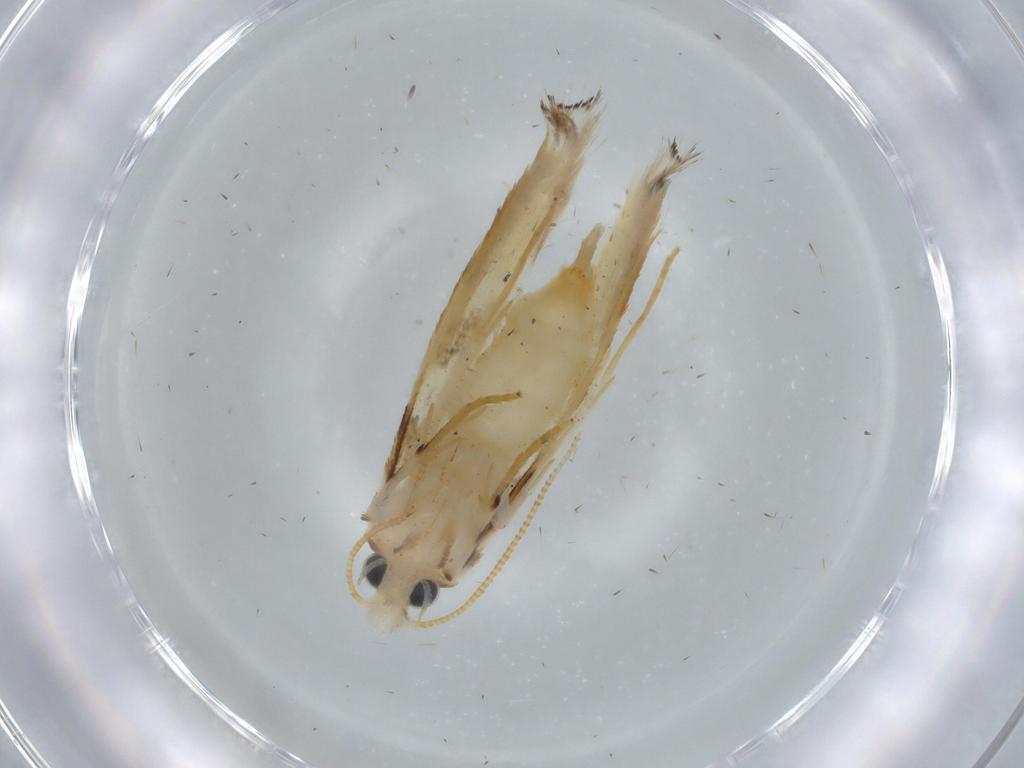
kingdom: Animalia
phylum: Arthropoda
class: Insecta
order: Lepidoptera
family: Tineidae
